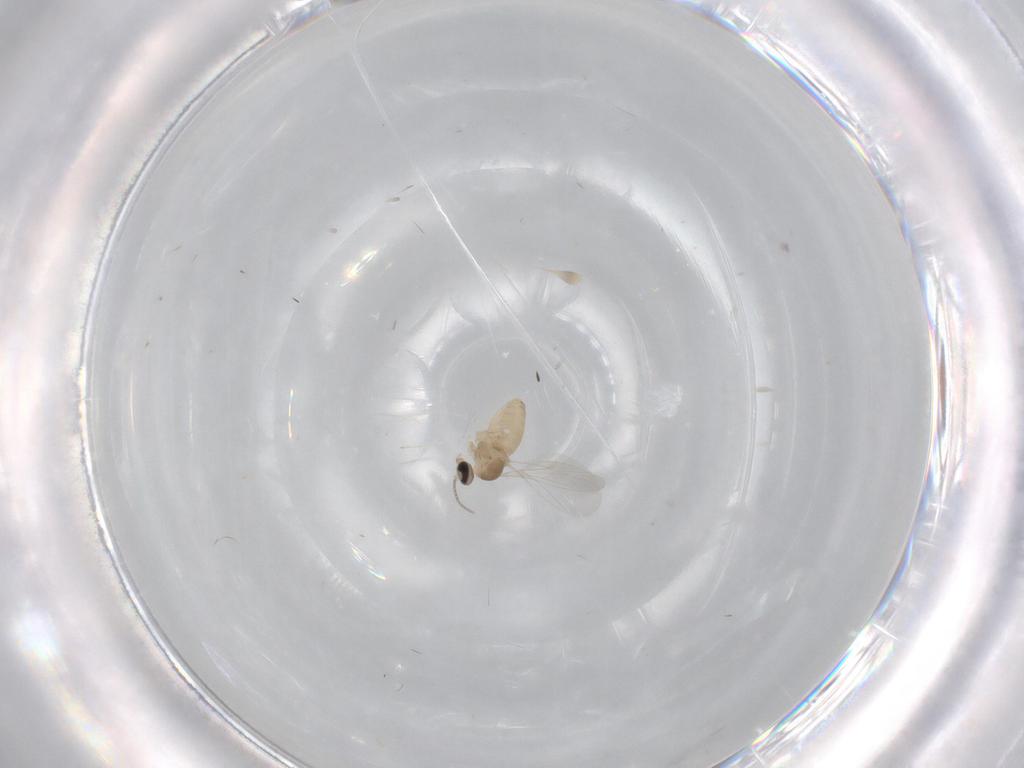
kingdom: Animalia
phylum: Arthropoda
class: Insecta
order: Diptera
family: Cecidomyiidae
